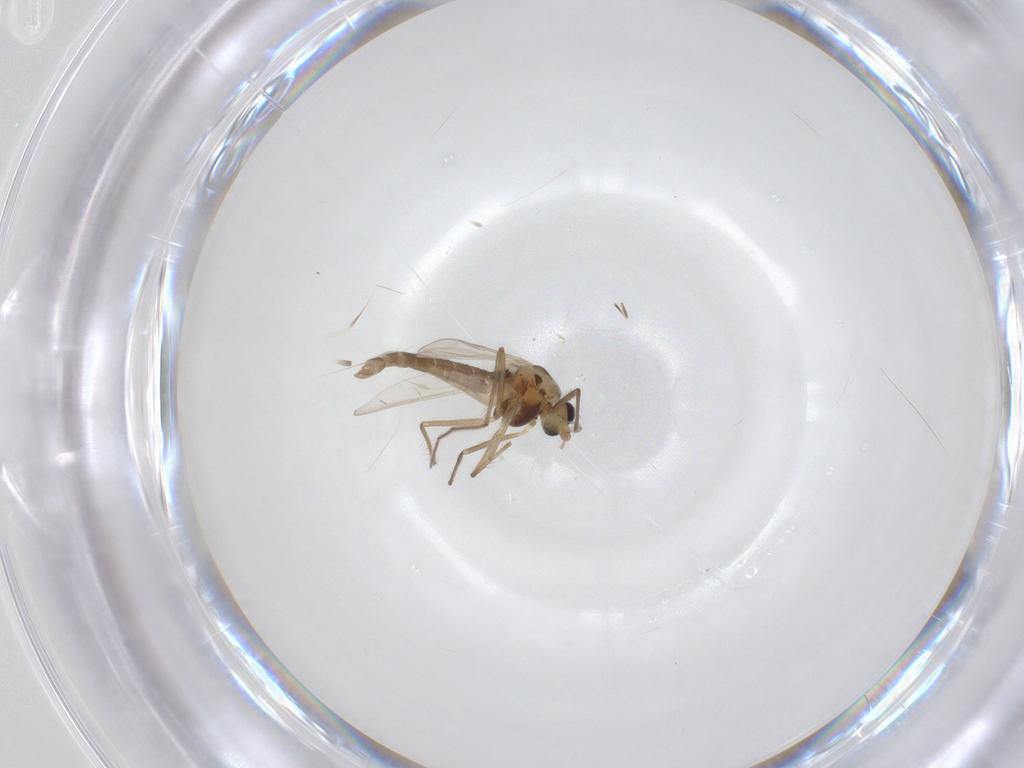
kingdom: Animalia
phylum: Arthropoda
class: Insecta
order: Diptera
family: Chironomidae
